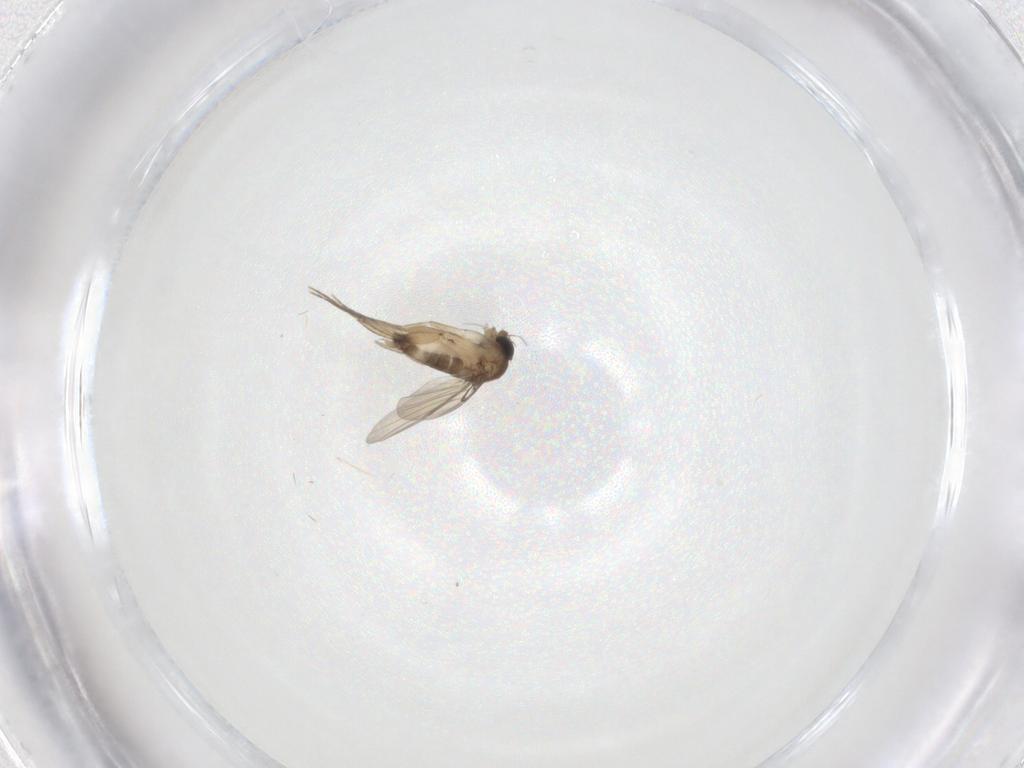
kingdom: Animalia
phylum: Arthropoda
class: Insecta
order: Diptera
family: Phoridae
